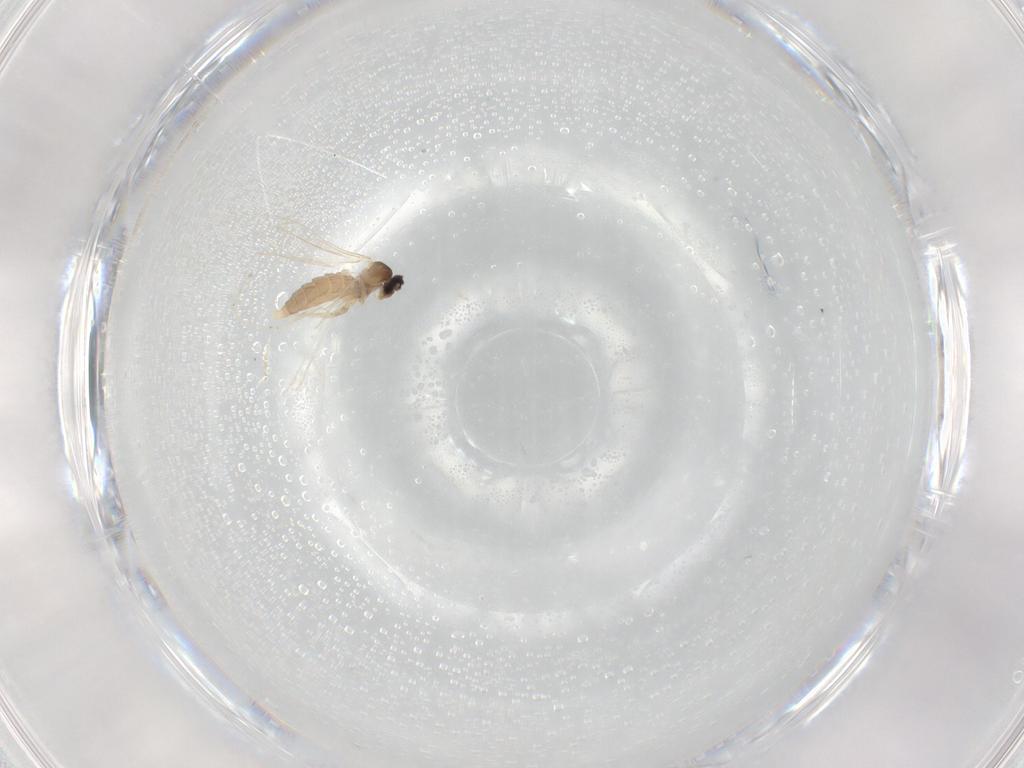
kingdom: Animalia
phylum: Arthropoda
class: Insecta
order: Diptera
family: Cecidomyiidae
